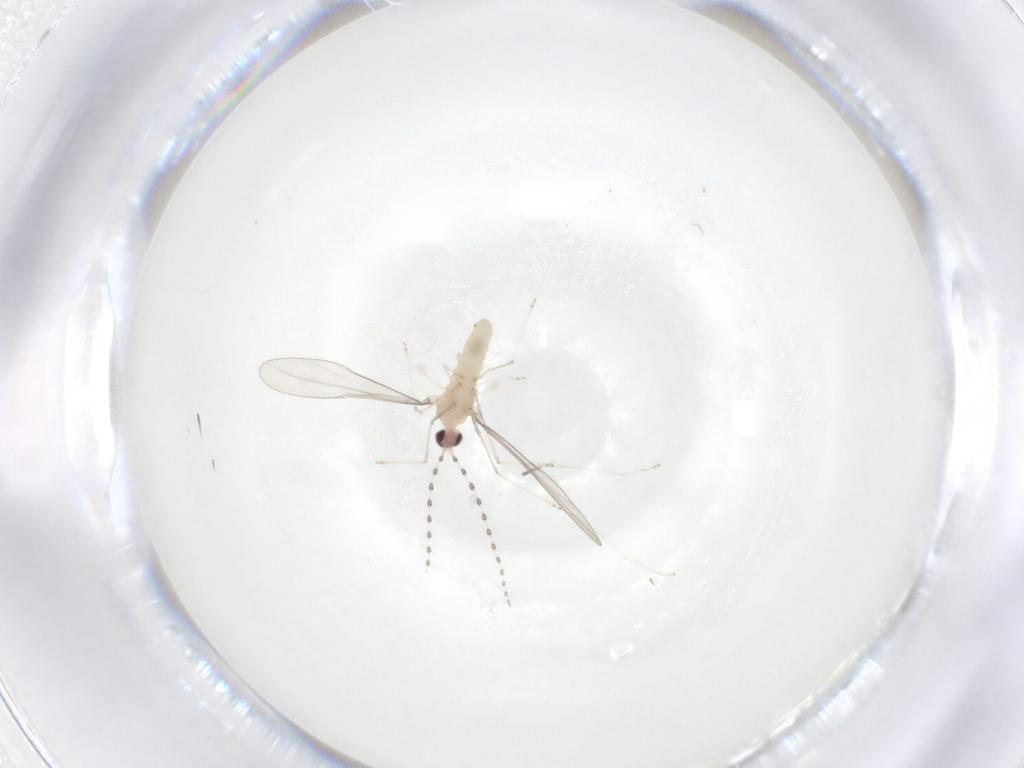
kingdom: Animalia
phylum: Arthropoda
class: Insecta
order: Diptera
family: Cecidomyiidae
